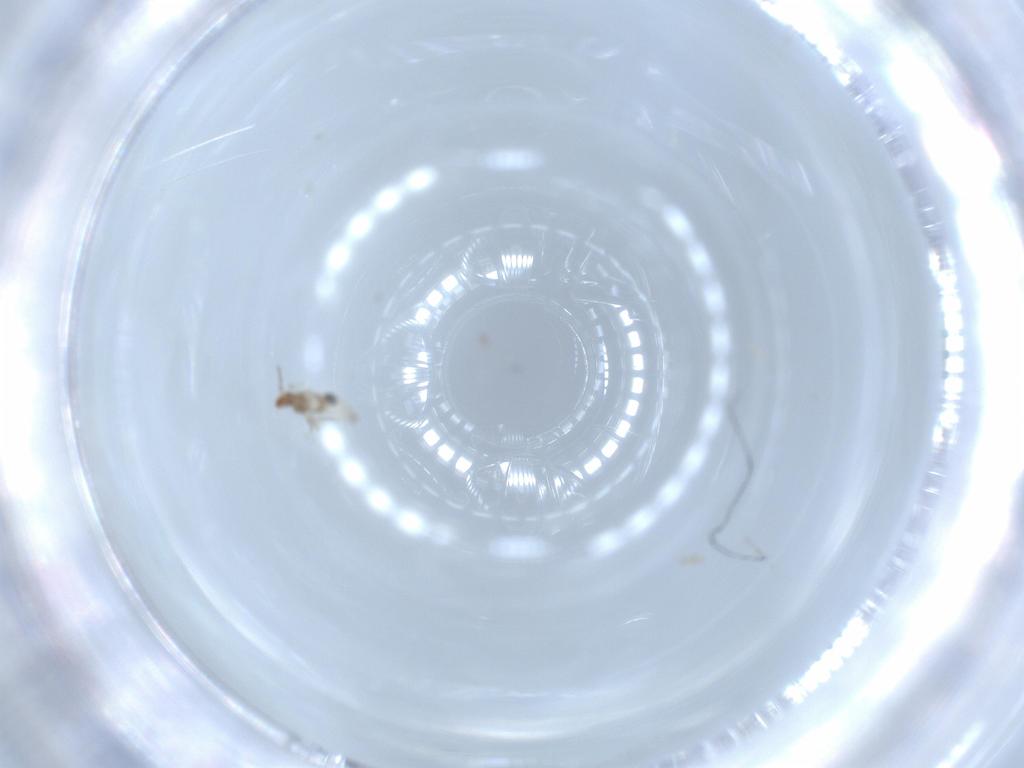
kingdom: Animalia
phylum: Arthropoda
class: Insecta
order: Diptera
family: Cecidomyiidae
